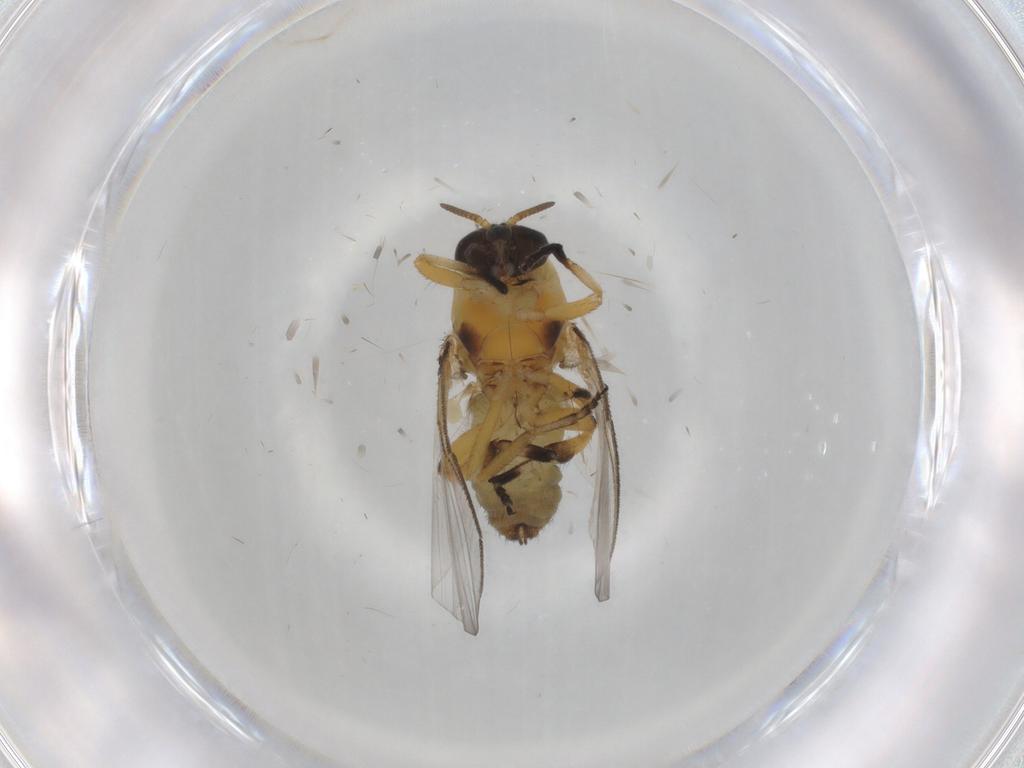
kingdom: Animalia
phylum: Arthropoda
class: Insecta
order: Diptera
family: Simuliidae
